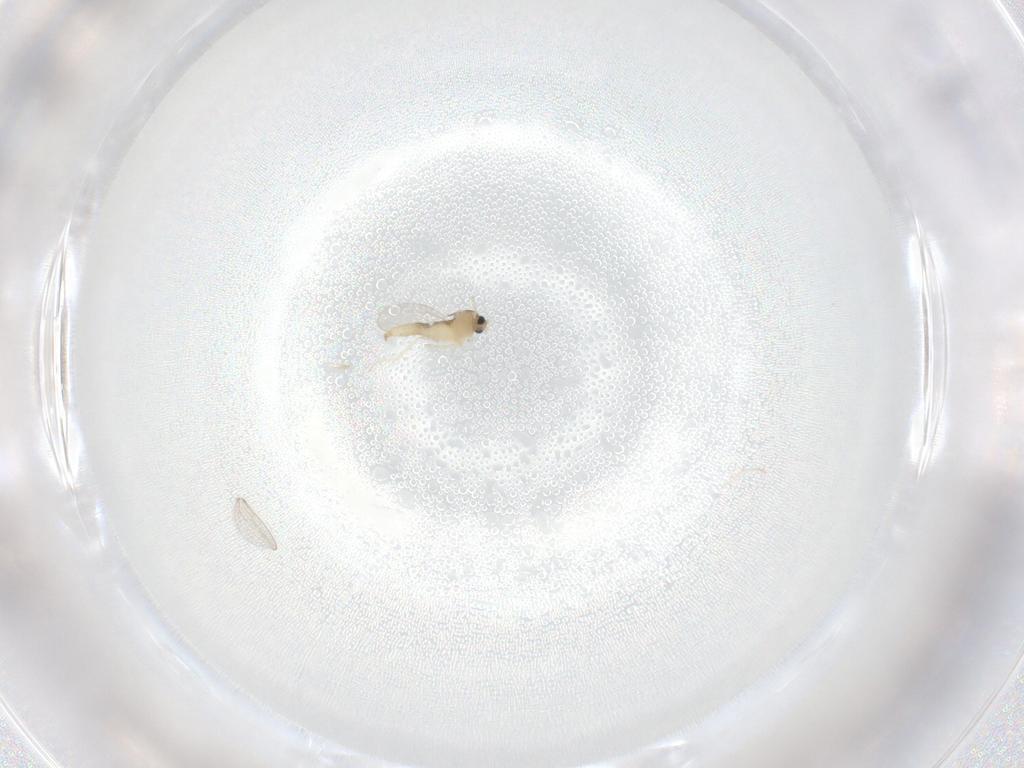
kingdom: Animalia
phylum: Arthropoda
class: Insecta
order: Diptera
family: Cecidomyiidae
